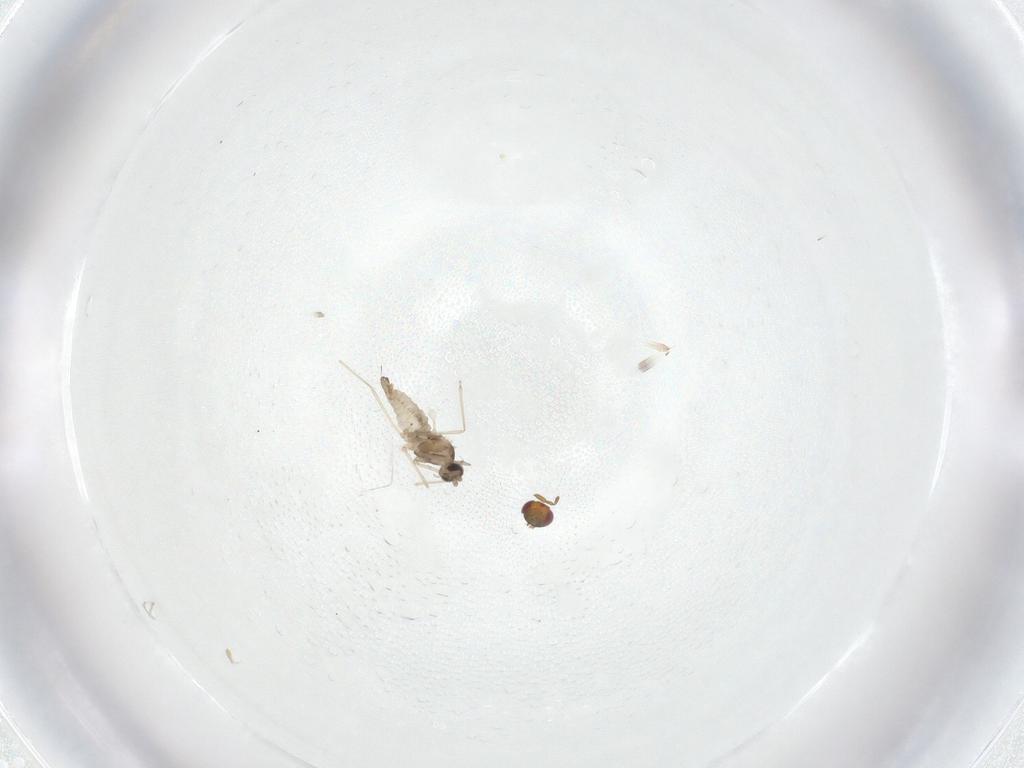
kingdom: Animalia
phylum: Arthropoda
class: Insecta
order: Diptera
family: Cecidomyiidae
